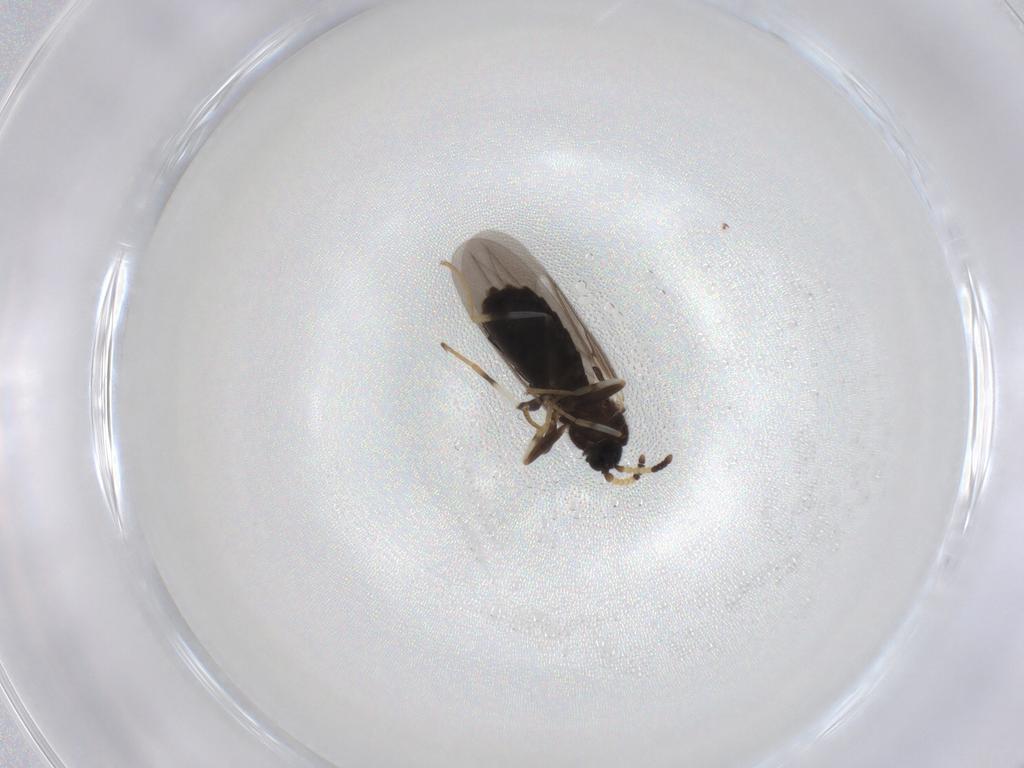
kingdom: Animalia
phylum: Arthropoda
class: Insecta
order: Diptera
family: Scatopsidae
